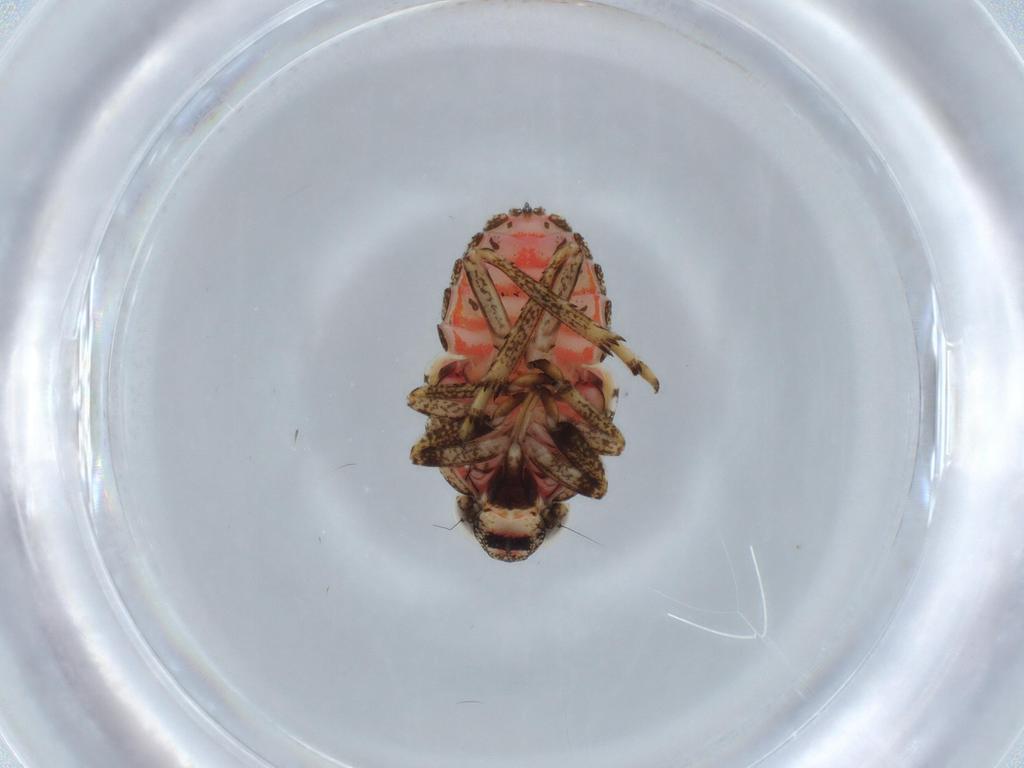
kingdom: Animalia
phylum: Arthropoda
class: Insecta
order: Hemiptera
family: Issidae
